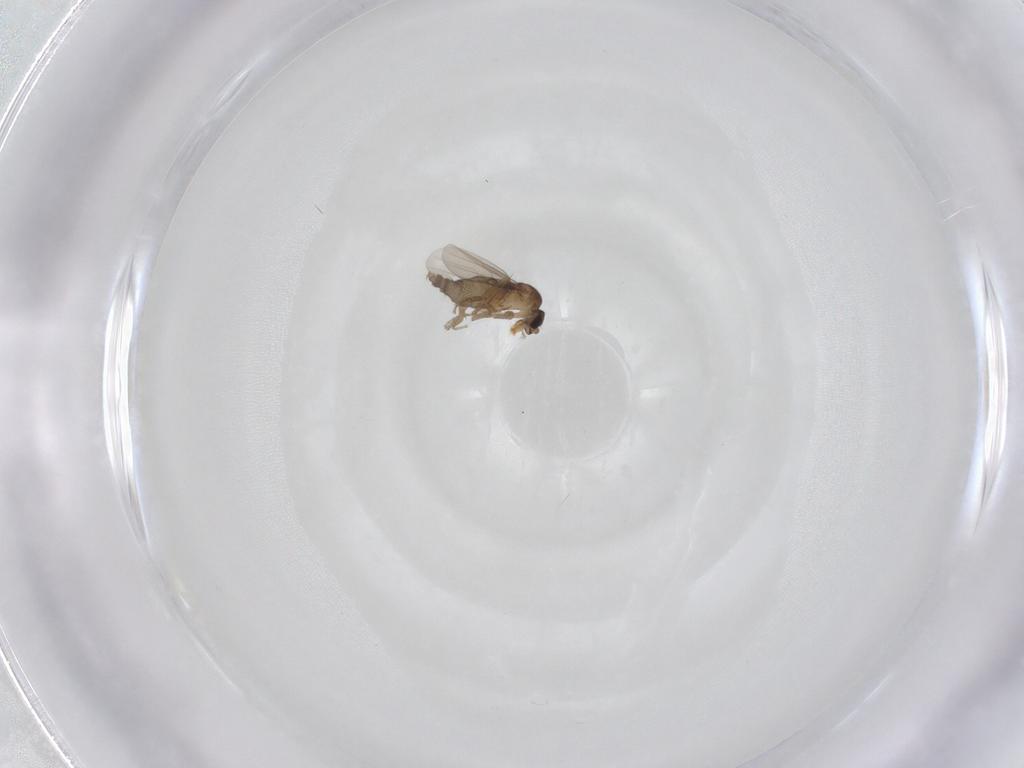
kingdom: Animalia
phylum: Arthropoda
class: Insecta
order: Diptera
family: Phoridae
